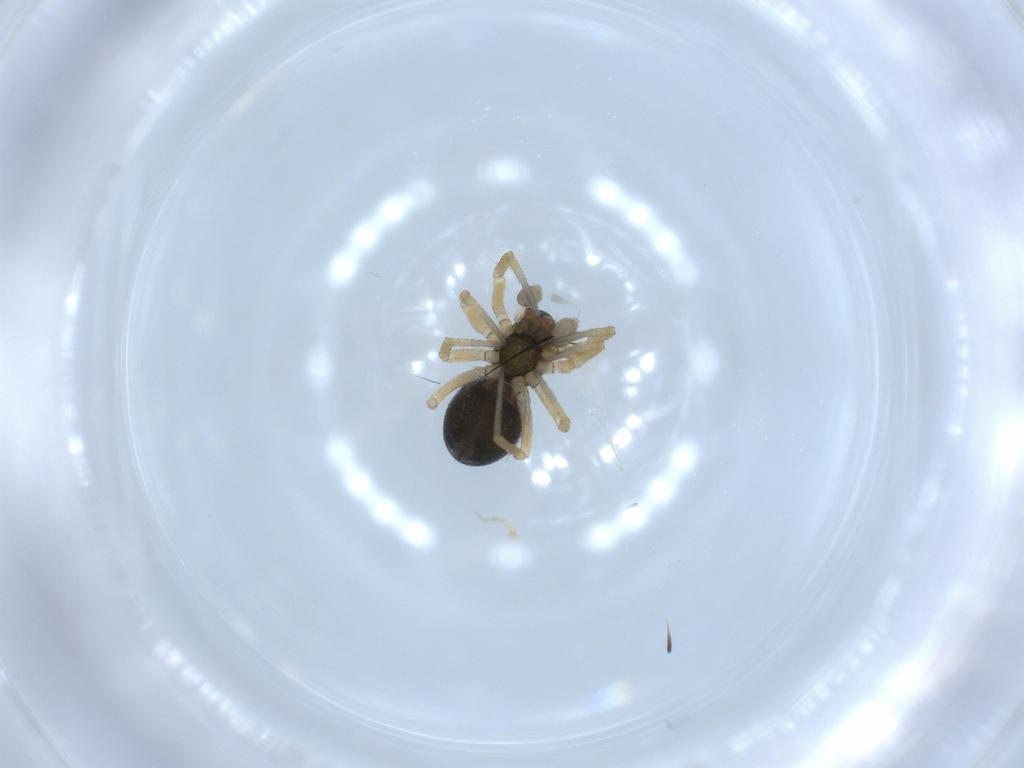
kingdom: Animalia
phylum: Arthropoda
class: Arachnida
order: Araneae
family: Linyphiidae
